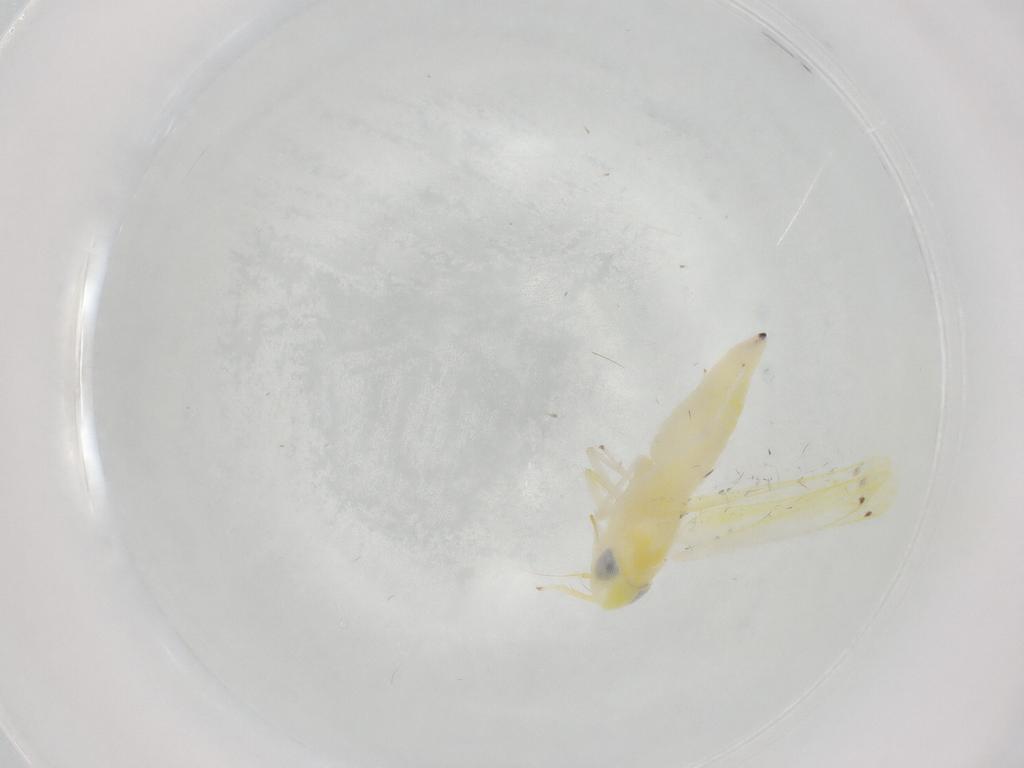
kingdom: Animalia
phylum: Arthropoda
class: Insecta
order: Hemiptera
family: Cicadellidae
